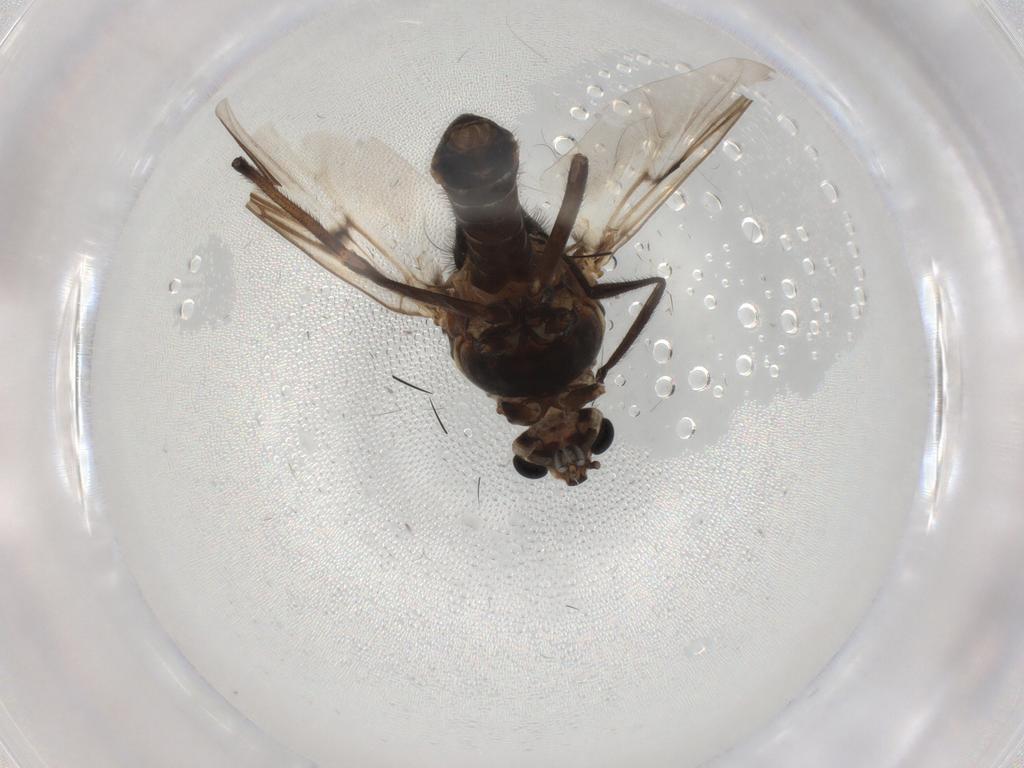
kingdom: Animalia
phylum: Arthropoda
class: Insecta
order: Diptera
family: Chironomidae
